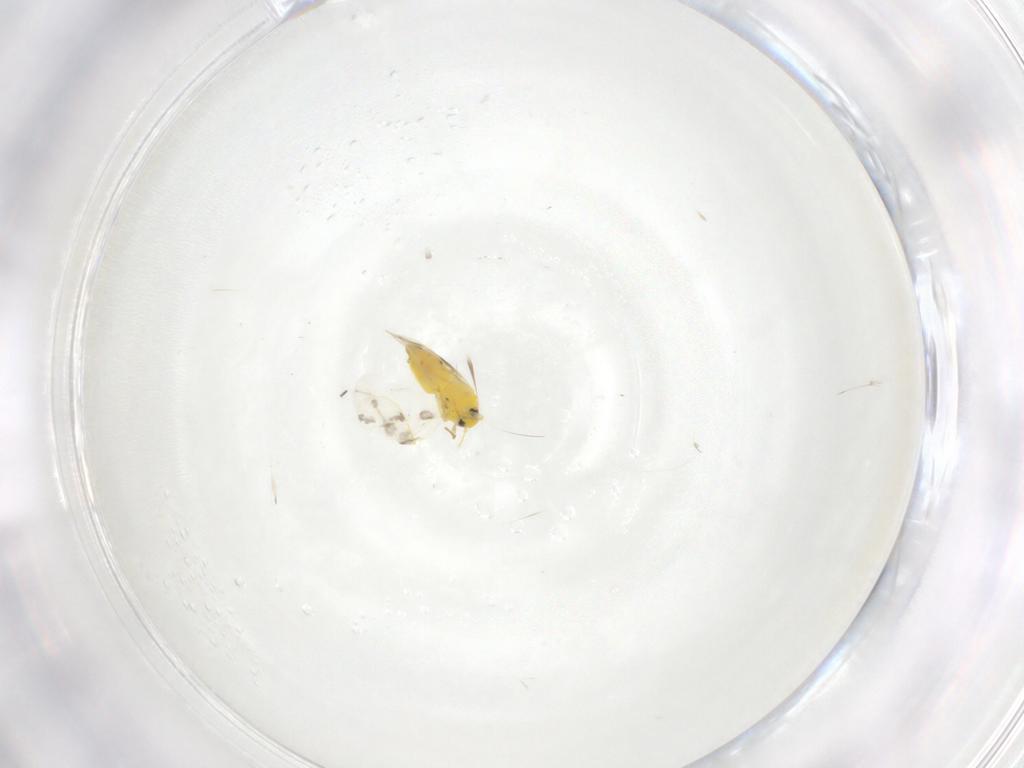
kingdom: Animalia
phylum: Arthropoda
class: Insecta
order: Hemiptera
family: Aleyrodidae
